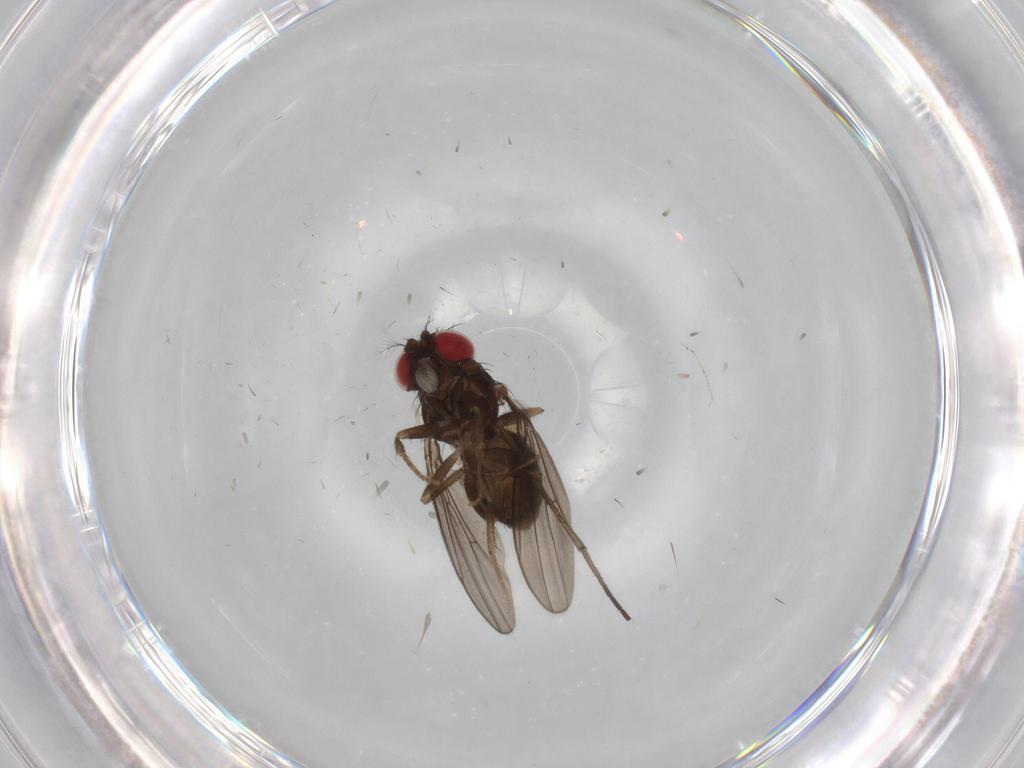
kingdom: Animalia
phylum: Arthropoda
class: Insecta
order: Diptera
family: Drosophilidae
